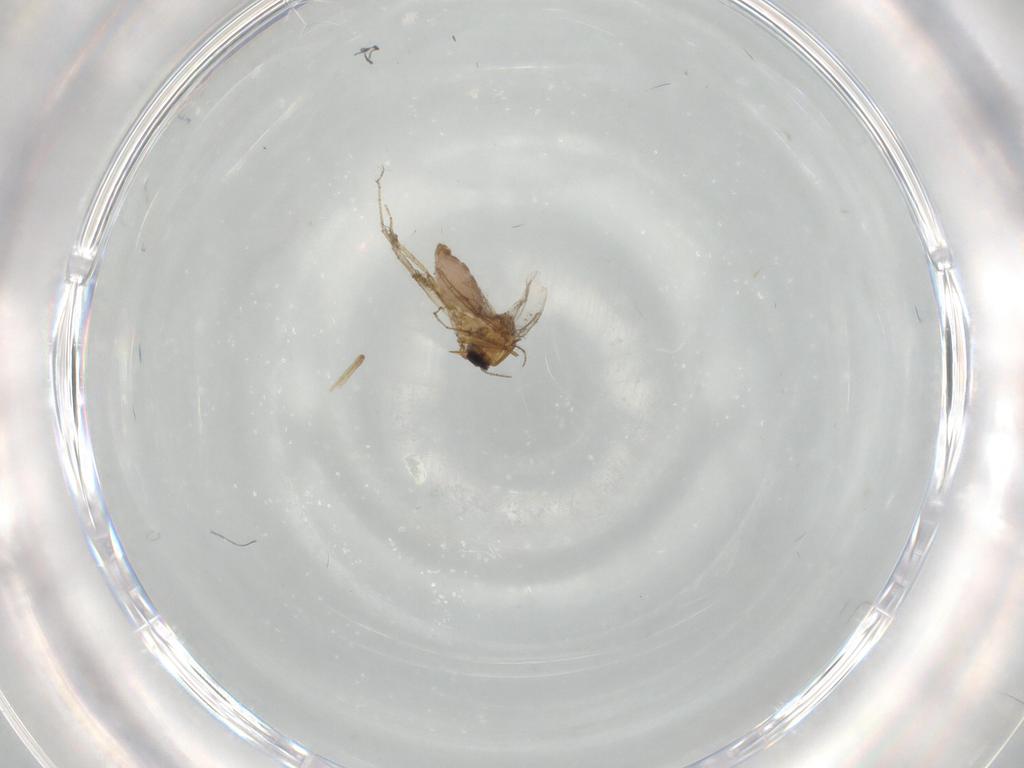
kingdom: Animalia
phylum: Arthropoda
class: Insecta
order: Diptera
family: Ceratopogonidae
